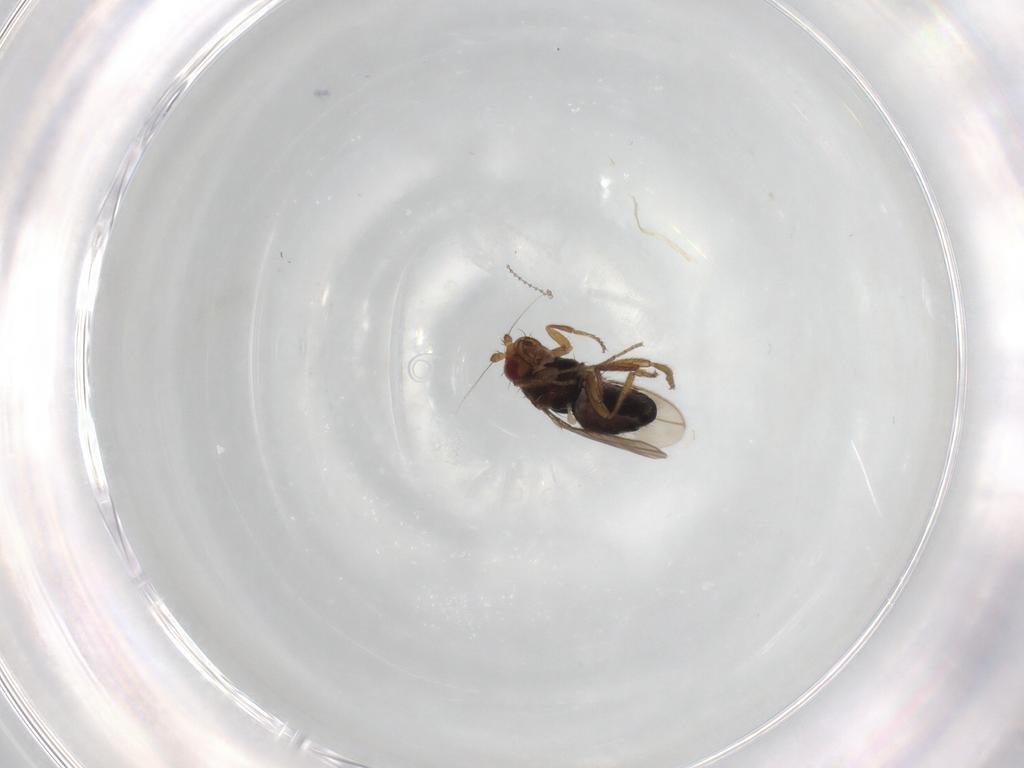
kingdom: Animalia
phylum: Arthropoda
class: Insecta
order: Diptera
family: Sphaeroceridae
